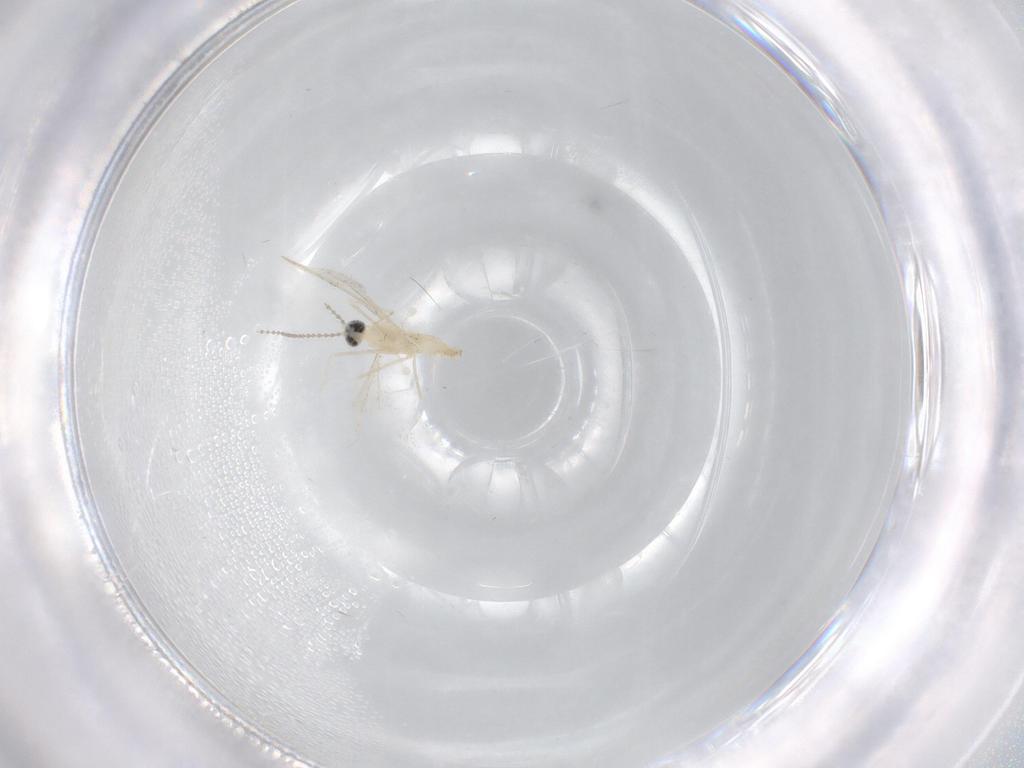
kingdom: Animalia
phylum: Arthropoda
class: Insecta
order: Diptera
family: Cecidomyiidae
